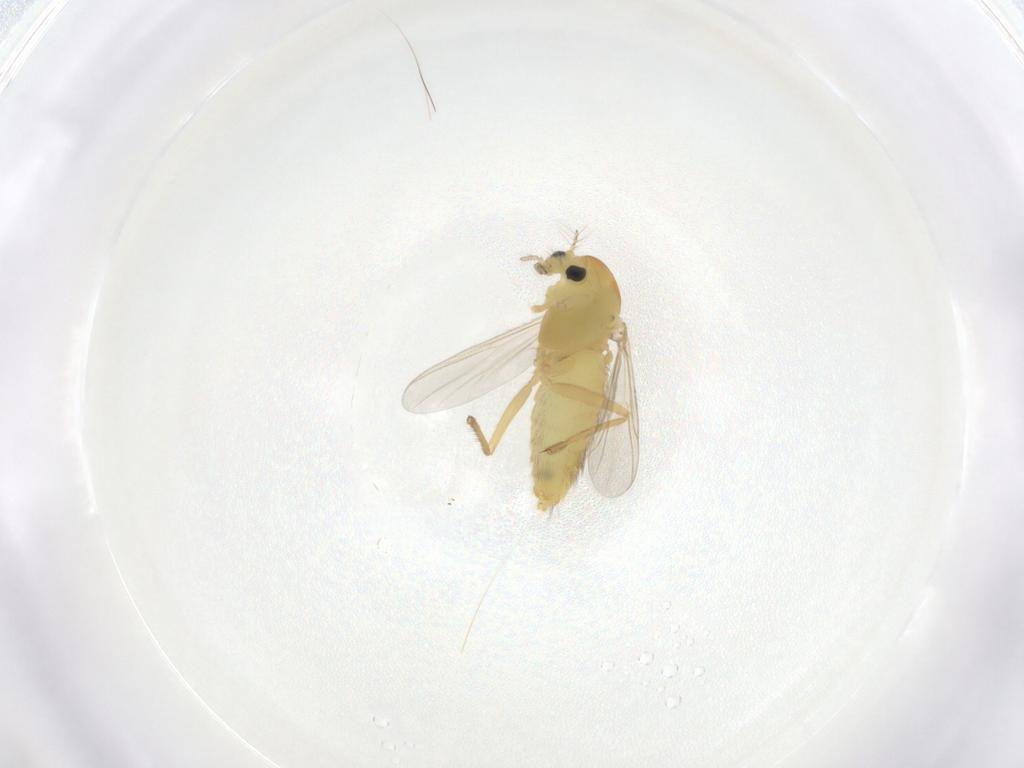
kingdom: Animalia
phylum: Arthropoda
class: Insecta
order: Diptera
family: Chironomidae
